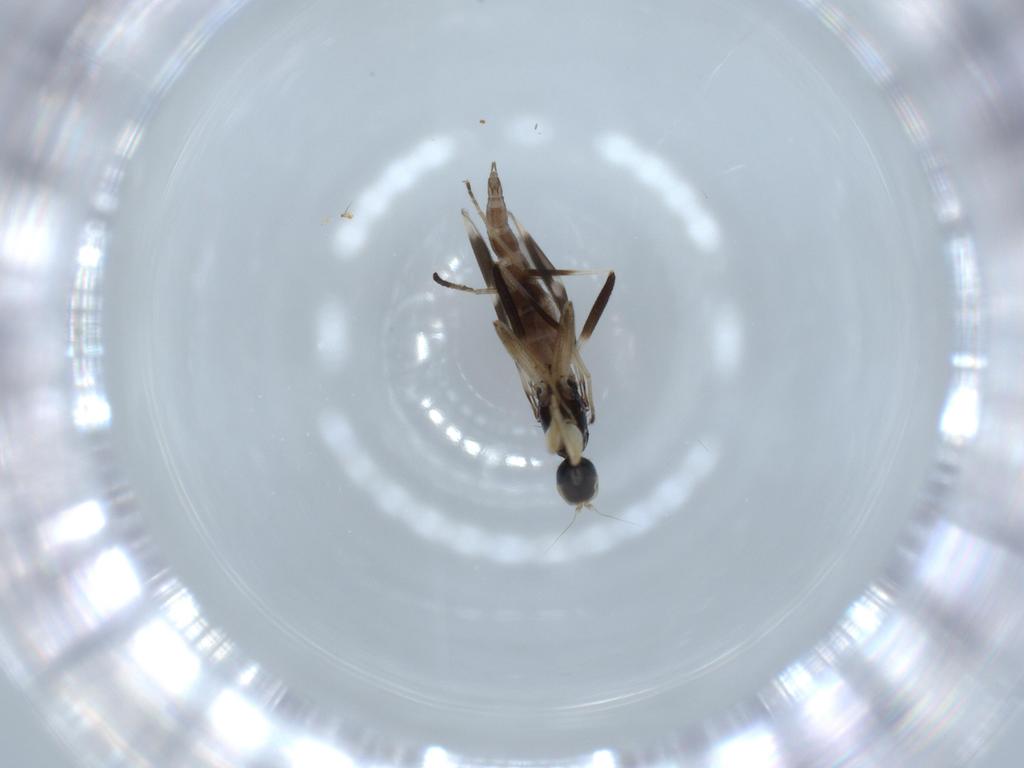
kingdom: Animalia
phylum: Arthropoda
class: Insecta
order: Diptera
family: Hybotidae
